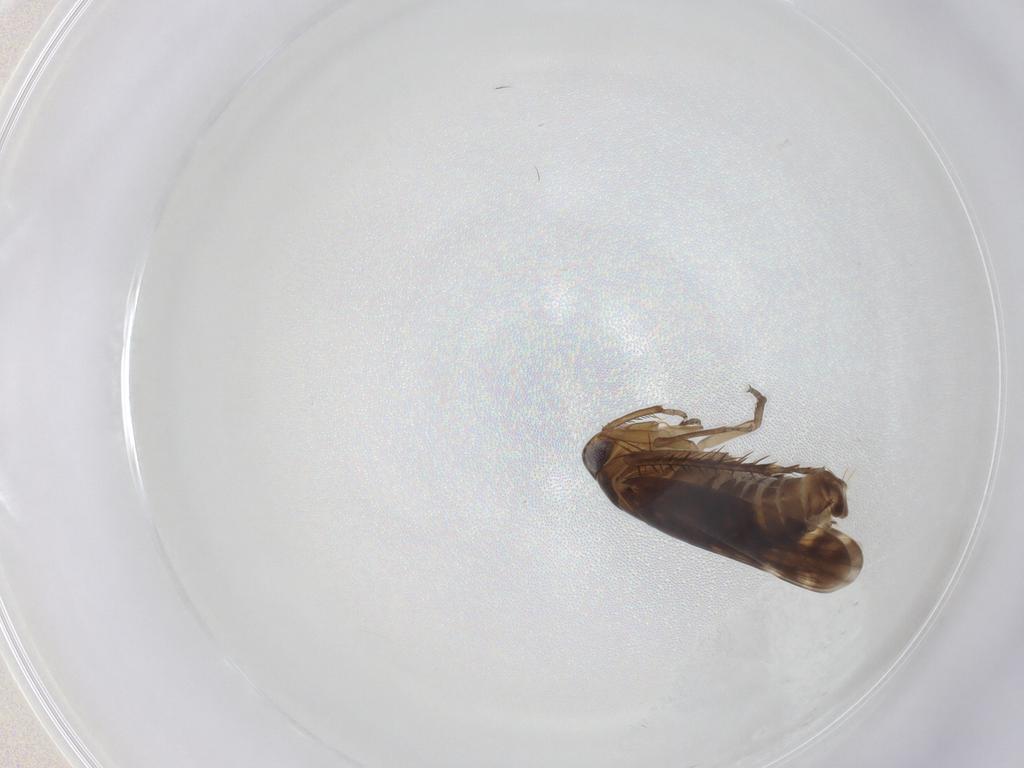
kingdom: Animalia
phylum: Arthropoda
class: Insecta
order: Hemiptera
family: Cicadellidae
